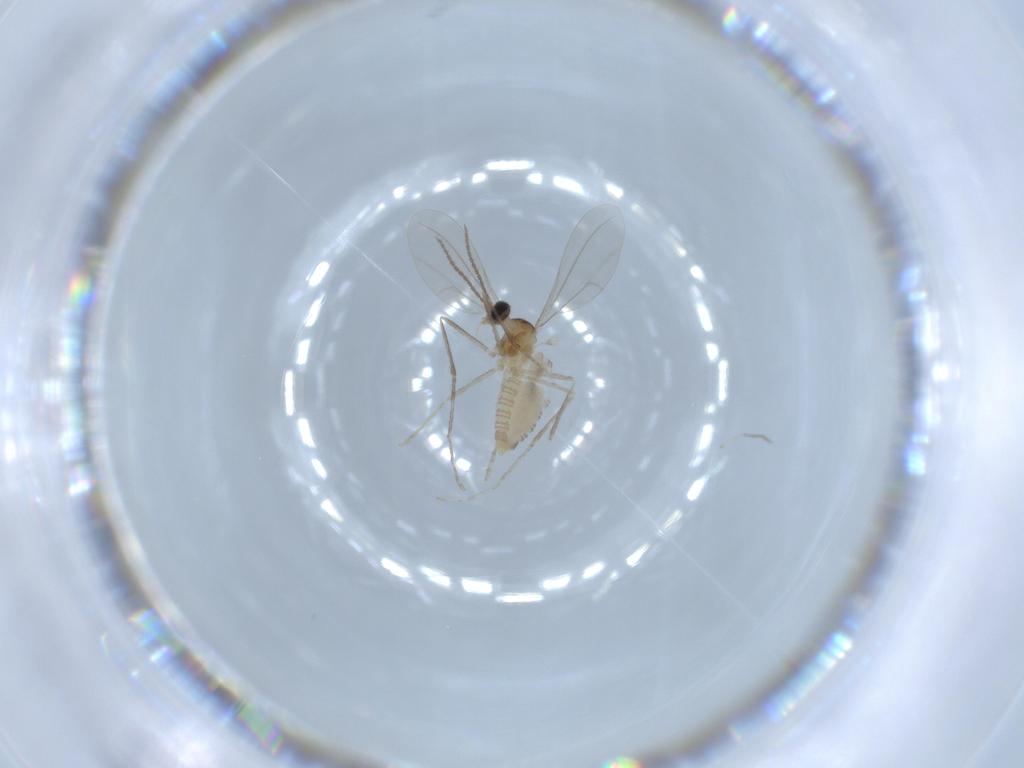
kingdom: Animalia
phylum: Arthropoda
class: Insecta
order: Diptera
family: Cecidomyiidae
